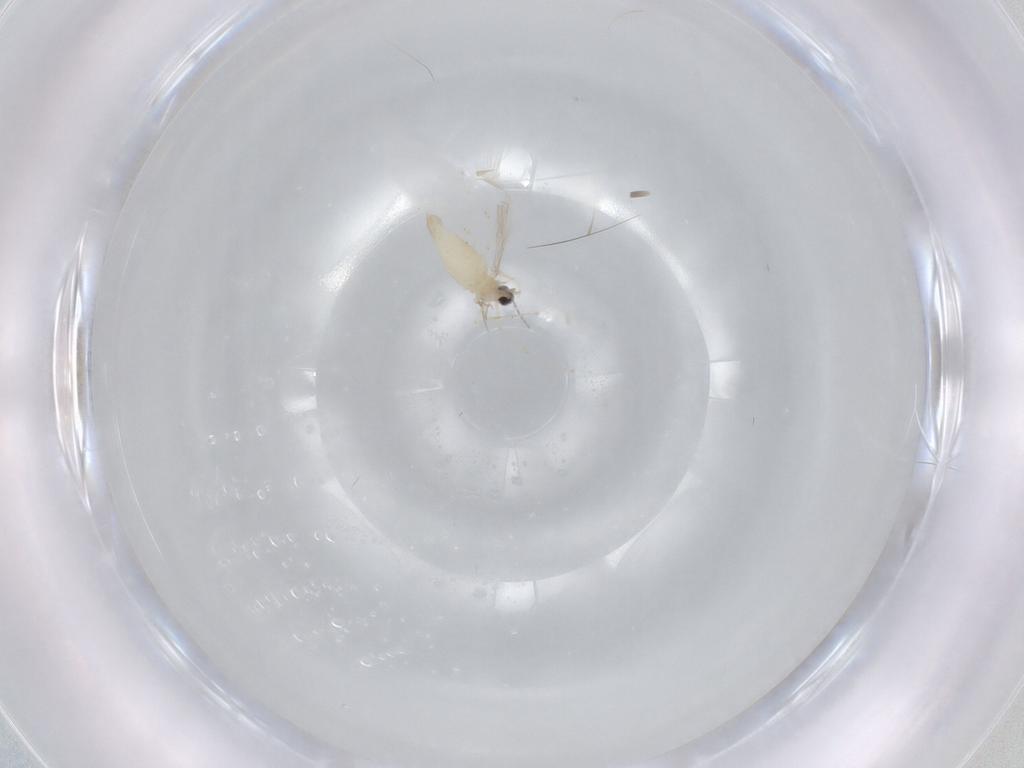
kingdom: Animalia
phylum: Arthropoda
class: Insecta
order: Diptera
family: Cecidomyiidae
